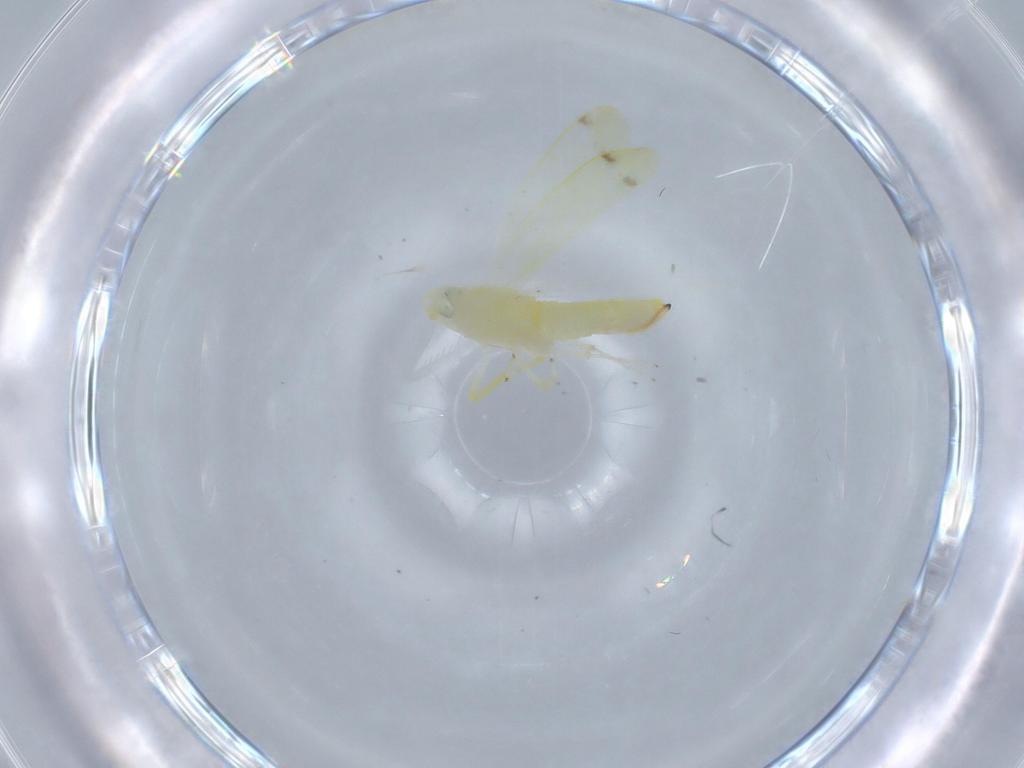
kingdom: Animalia
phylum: Arthropoda
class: Insecta
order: Hemiptera
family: Cicadellidae
